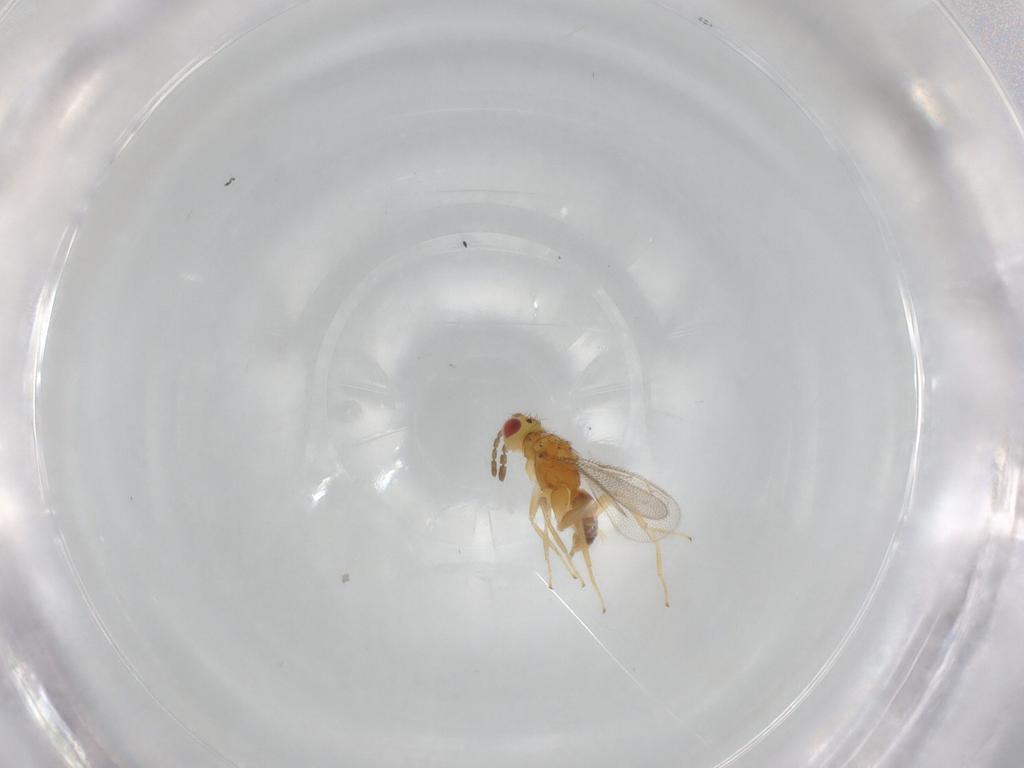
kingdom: Animalia
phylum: Arthropoda
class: Insecta
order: Hymenoptera
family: Eulophidae
